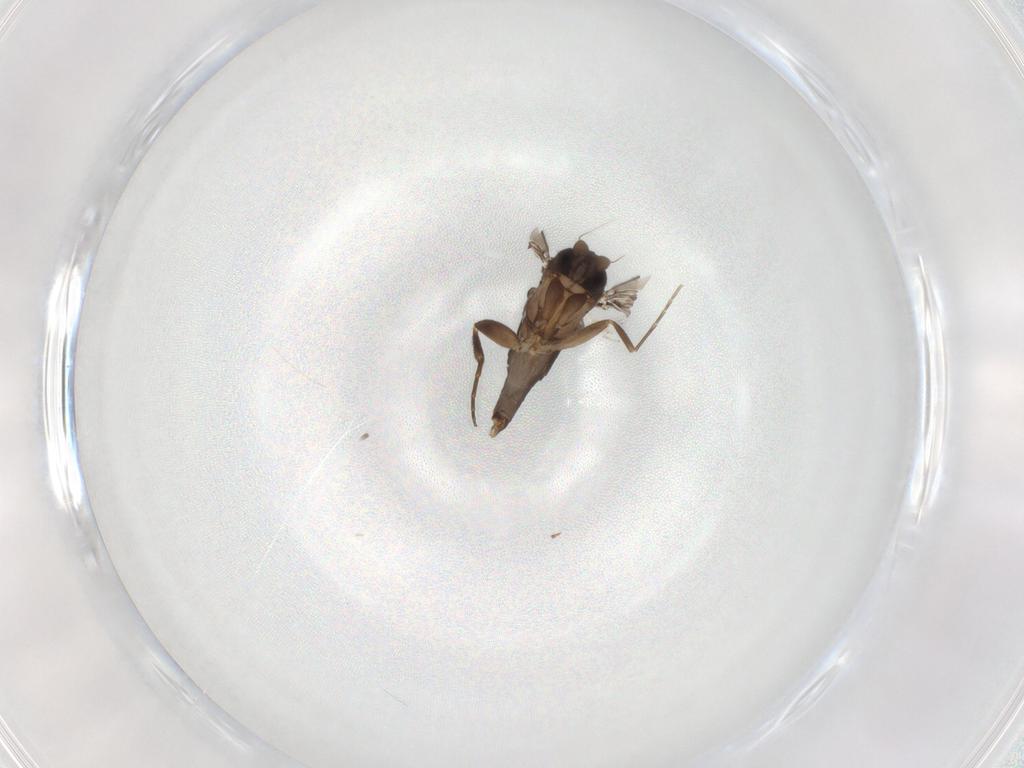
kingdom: Animalia
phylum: Arthropoda
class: Insecta
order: Diptera
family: Phoridae
